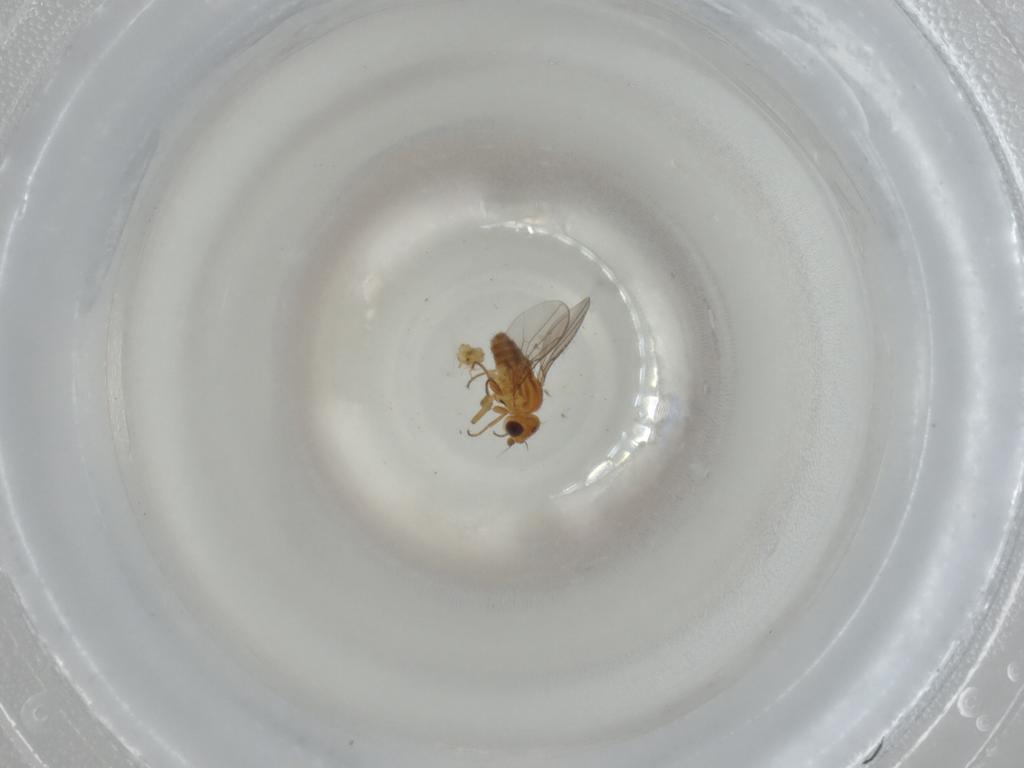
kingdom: Animalia
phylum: Arthropoda
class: Insecta
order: Diptera
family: Chloropidae
